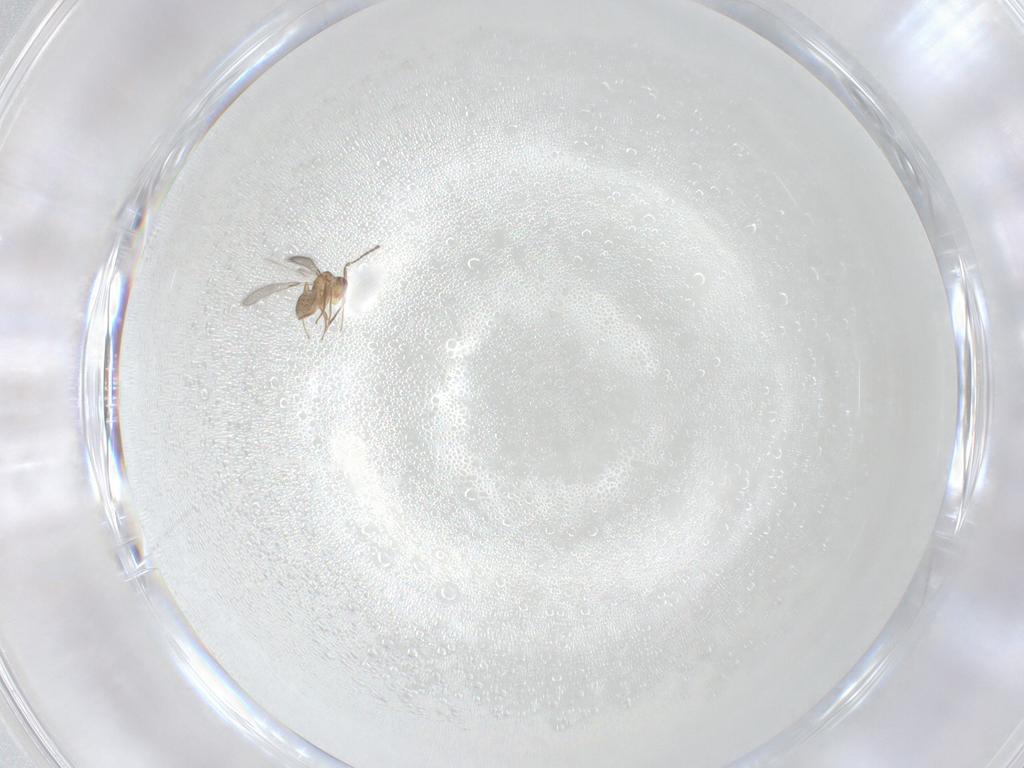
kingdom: Animalia
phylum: Arthropoda
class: Insecta
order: Hymenoptera
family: Mymaridae
